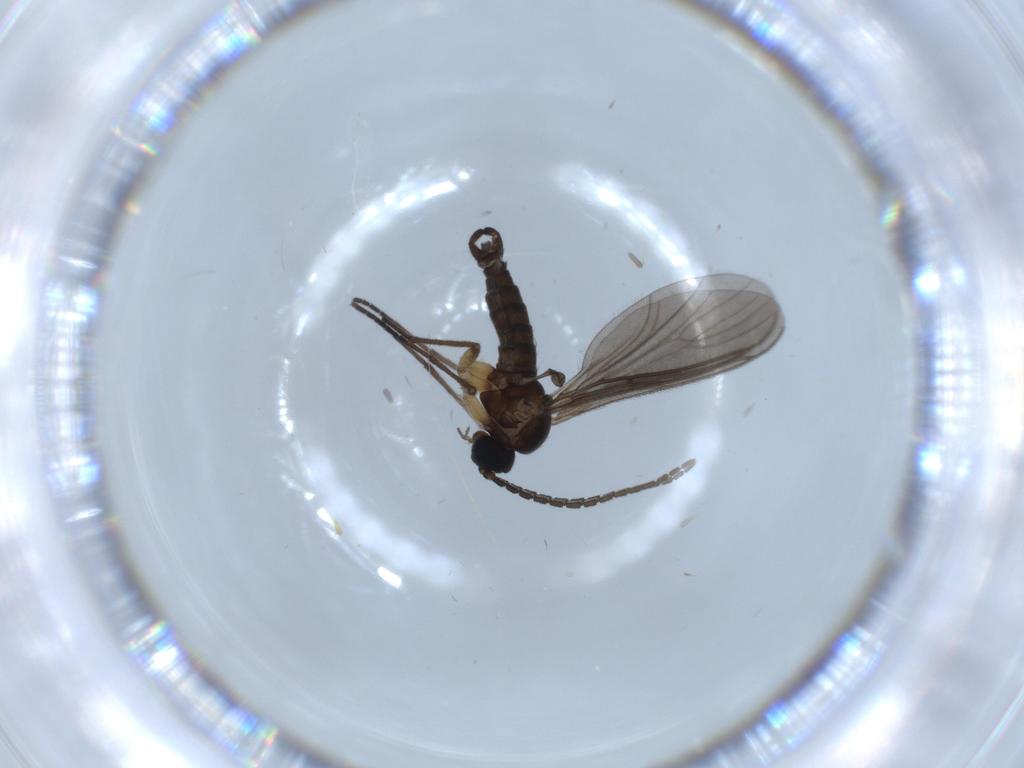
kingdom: Animalia
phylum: Arthropoda
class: Insecta
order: Diptera
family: Sciaridae
